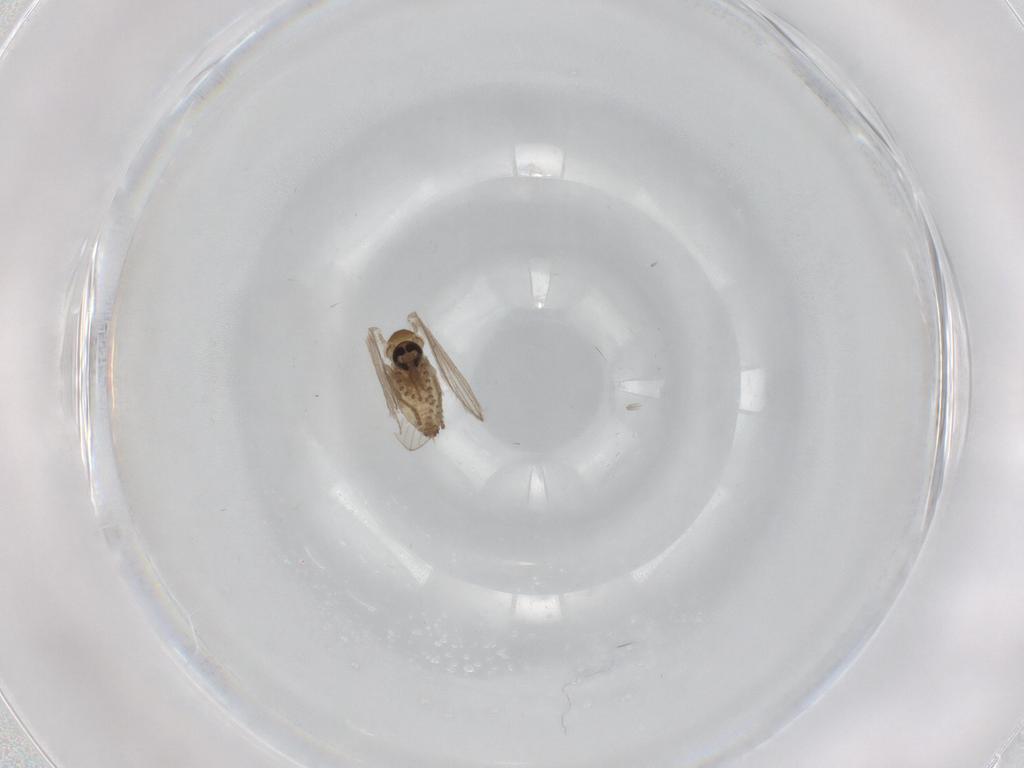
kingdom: Animalia
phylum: Arthropoda
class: Insecta
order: Diptera
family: Psychodidae
